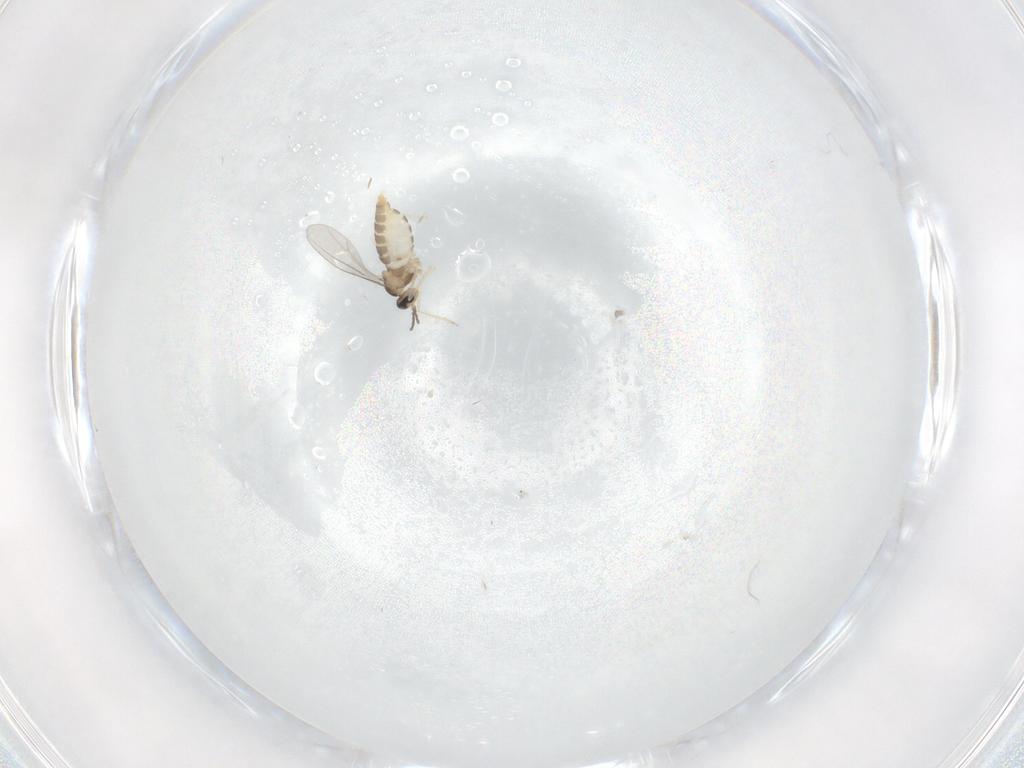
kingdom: Animalia
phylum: Arthropoda
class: Insecta
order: Diptera
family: Cecidomyiidae
